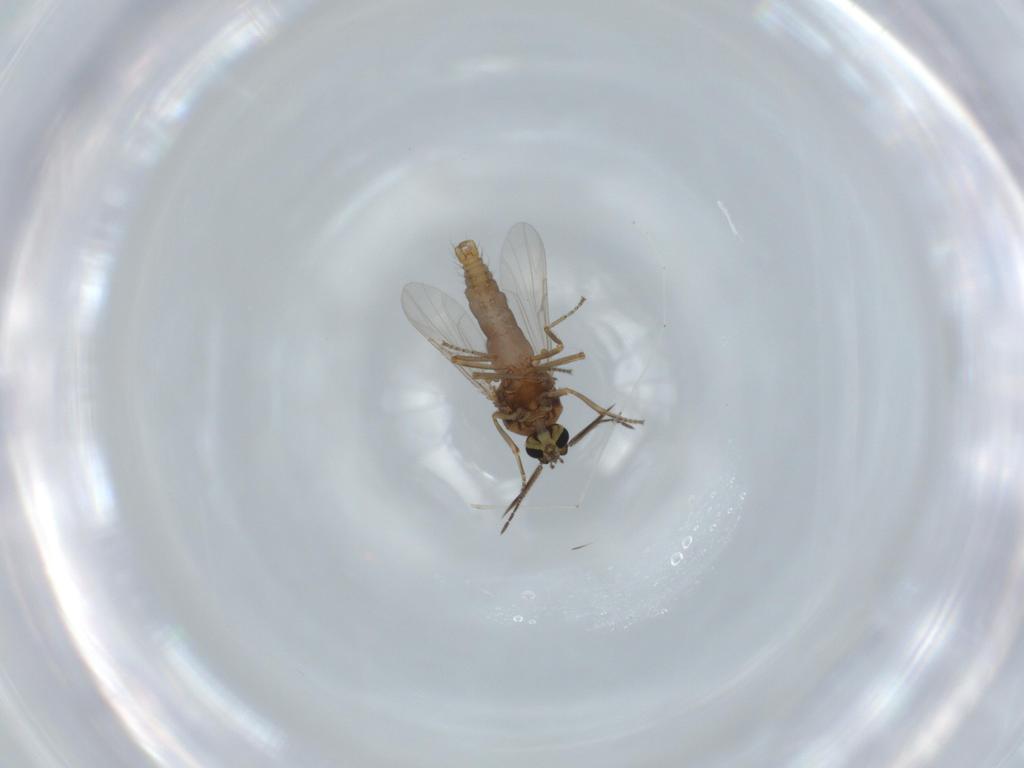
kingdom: Animalia
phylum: Arthropoda
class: Insecta
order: Diptera
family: Ceratopogonidae
